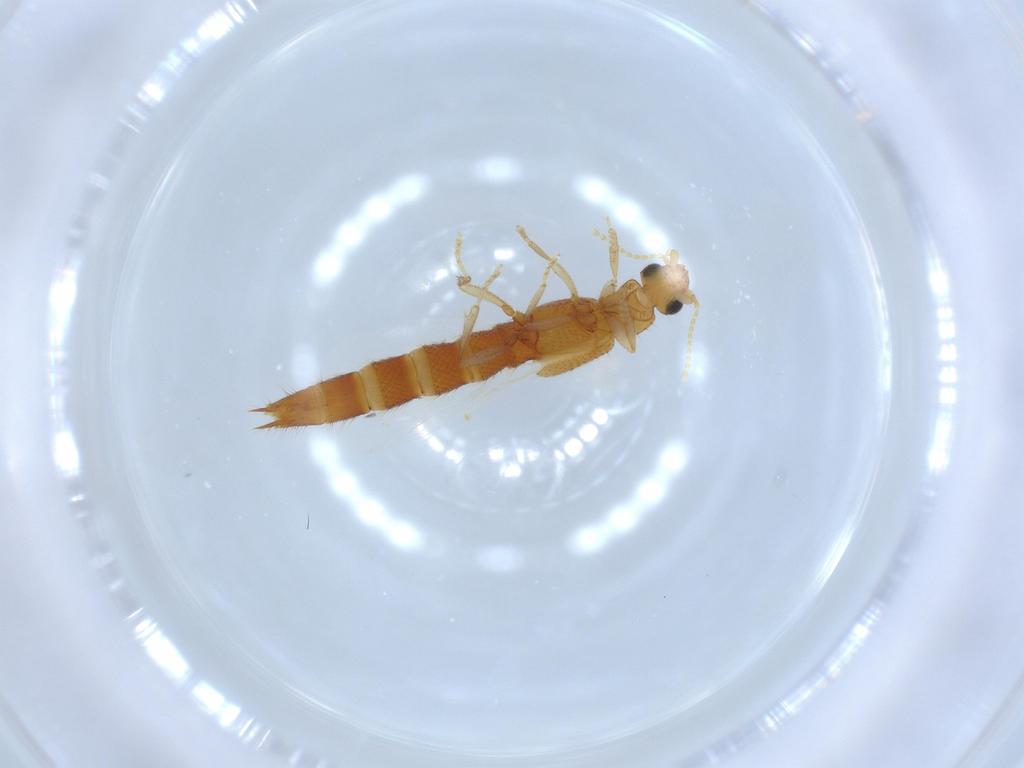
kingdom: Animalia
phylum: Arthropoda
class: Insecta
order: Coleoptera
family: Staphylinidae
